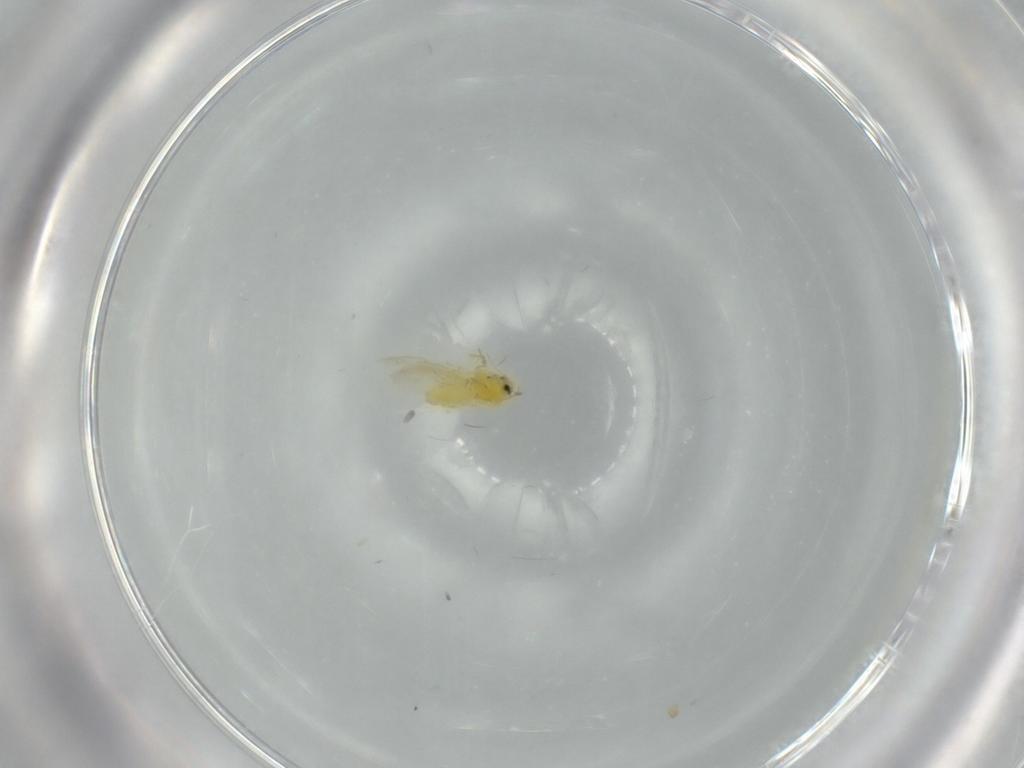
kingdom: Animalia
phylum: Arthropoda
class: Insecta
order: Hemiptera
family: Aleyrodidae
